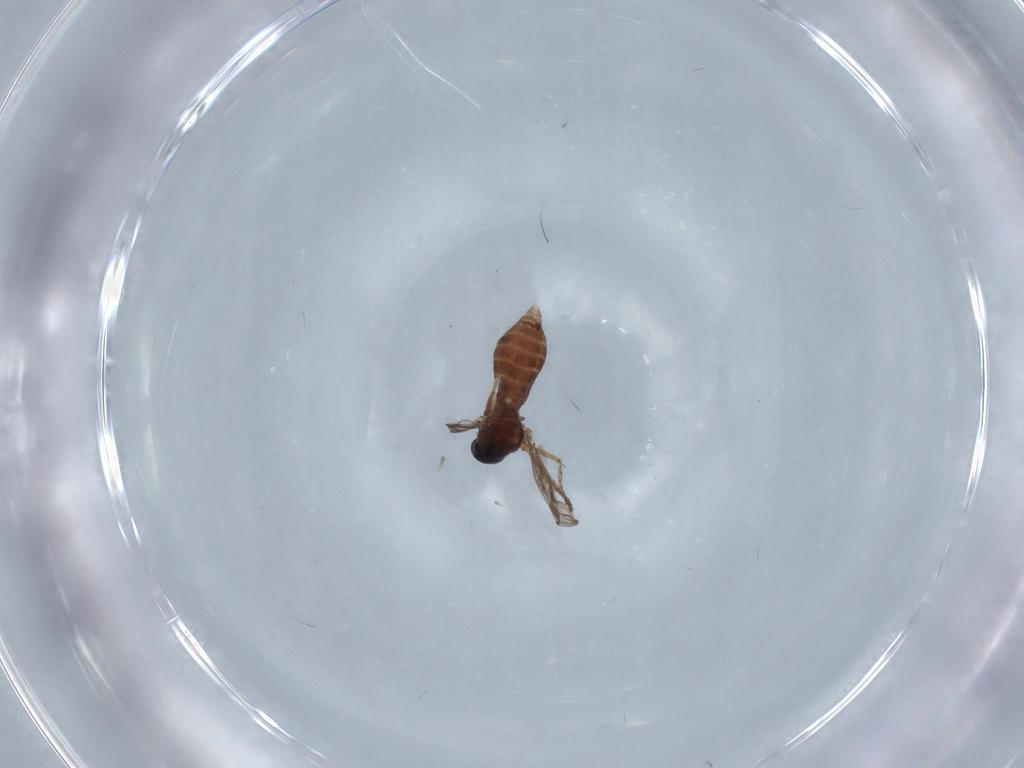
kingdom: Animalia
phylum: Arthropoda
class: Insecta
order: Diptera
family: Ceratopogonidae
